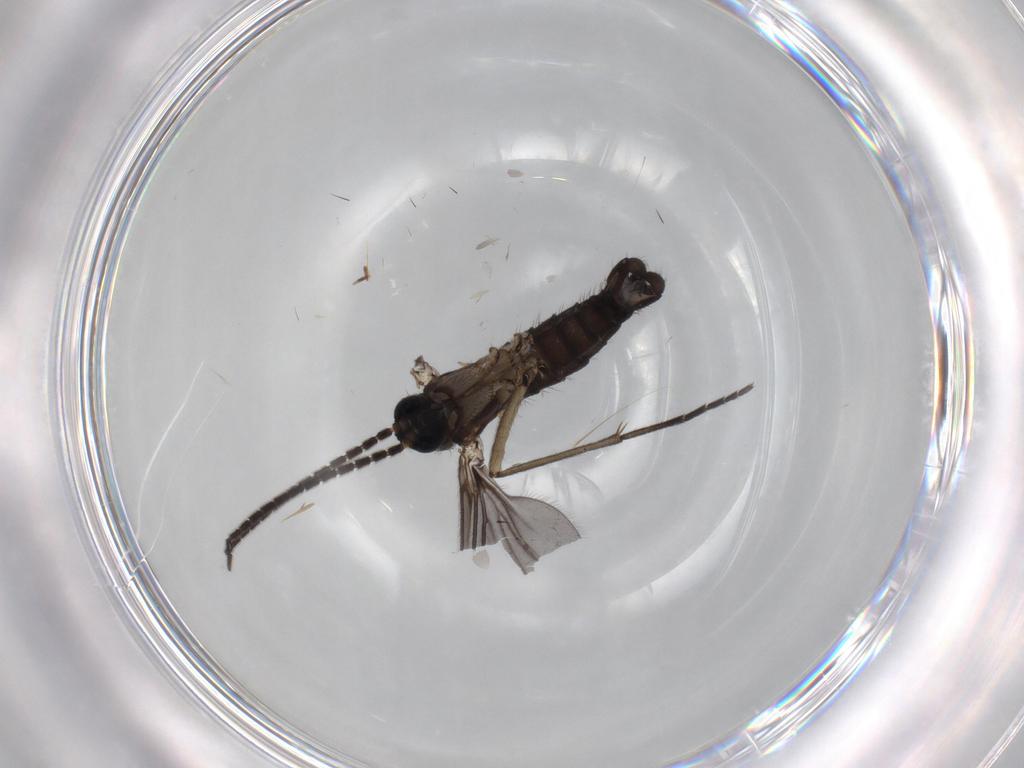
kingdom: Animalia
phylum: Arthropoda
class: Insecta
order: Diptera
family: Sciaridae
